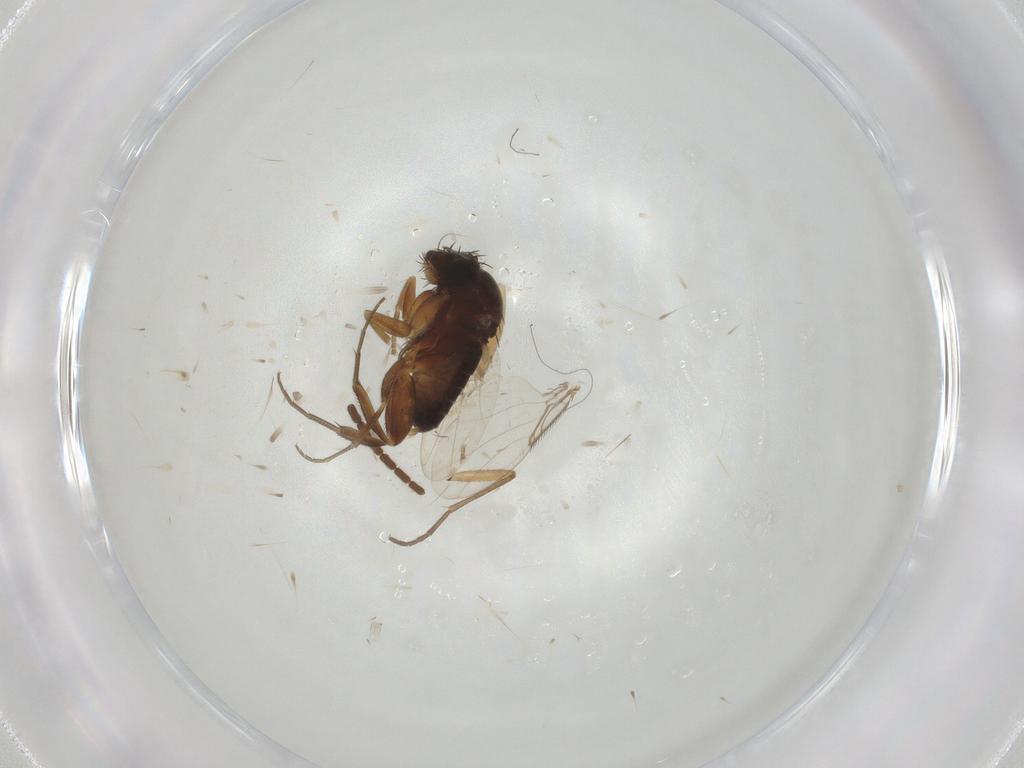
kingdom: Animalia
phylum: Arthropoda
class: Insecta
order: Diptera
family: Phoridae
